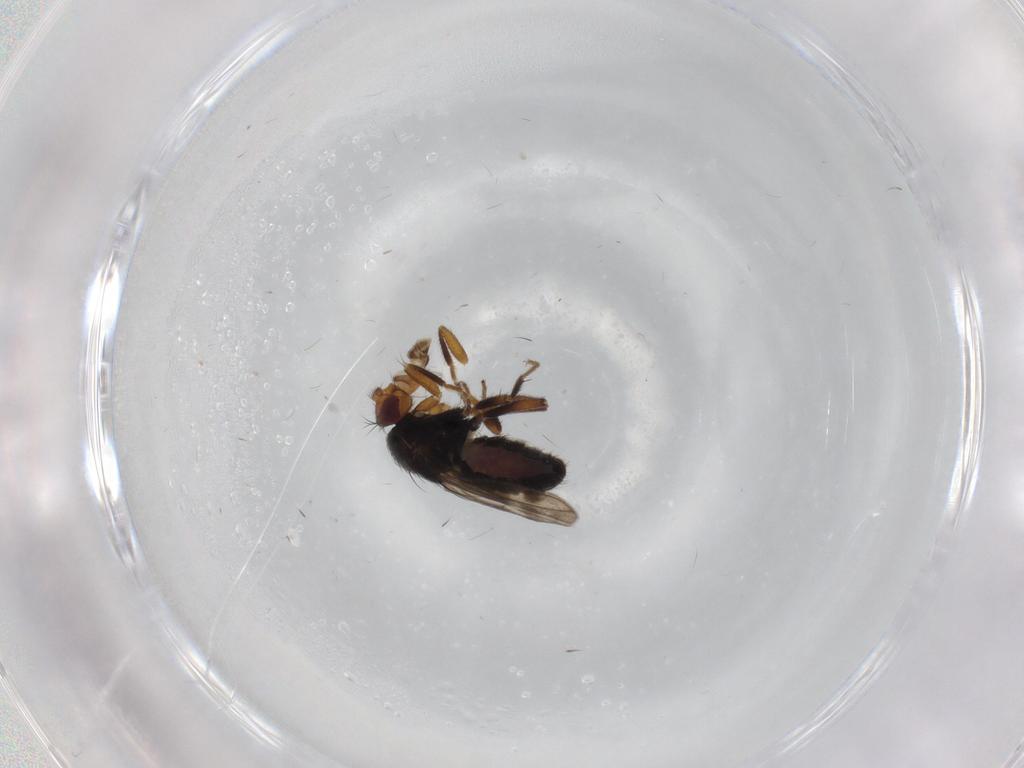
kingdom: Animalia
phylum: Arthropoda
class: Insecta
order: Diptera
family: Sphaeroceridae
